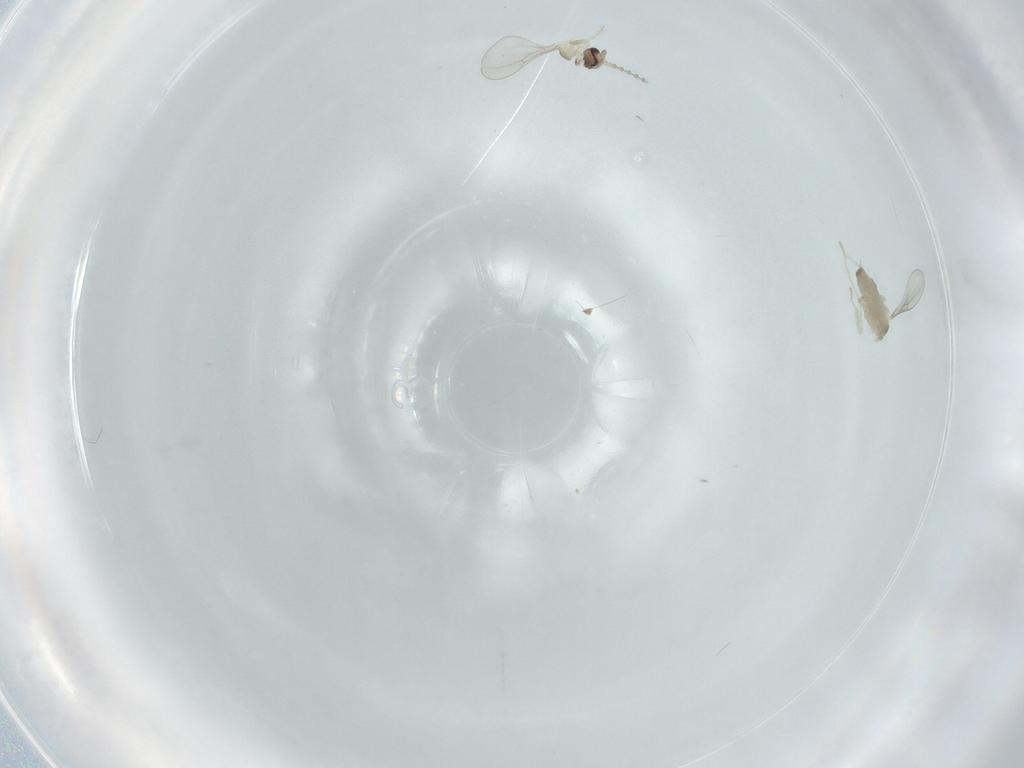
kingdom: Animalia
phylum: Arthropoda
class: Insecta
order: Diptera
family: Cecidomyiidae
